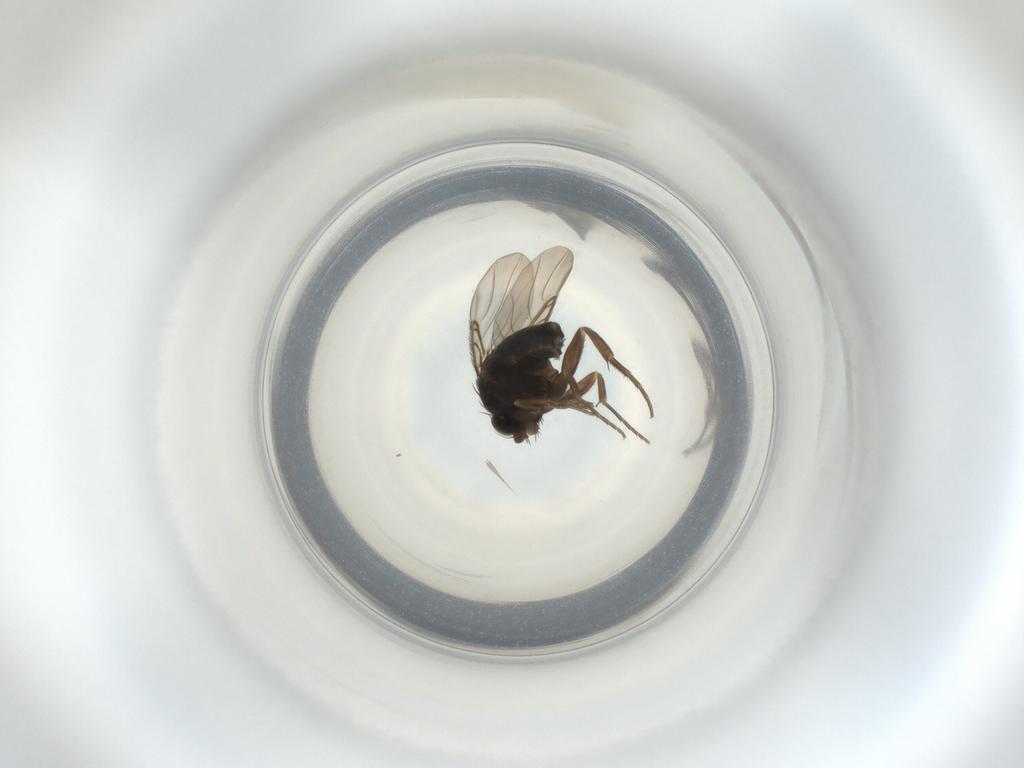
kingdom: Animalia
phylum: Arthropoda
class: Insecta
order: Diptera
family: Phoridae
